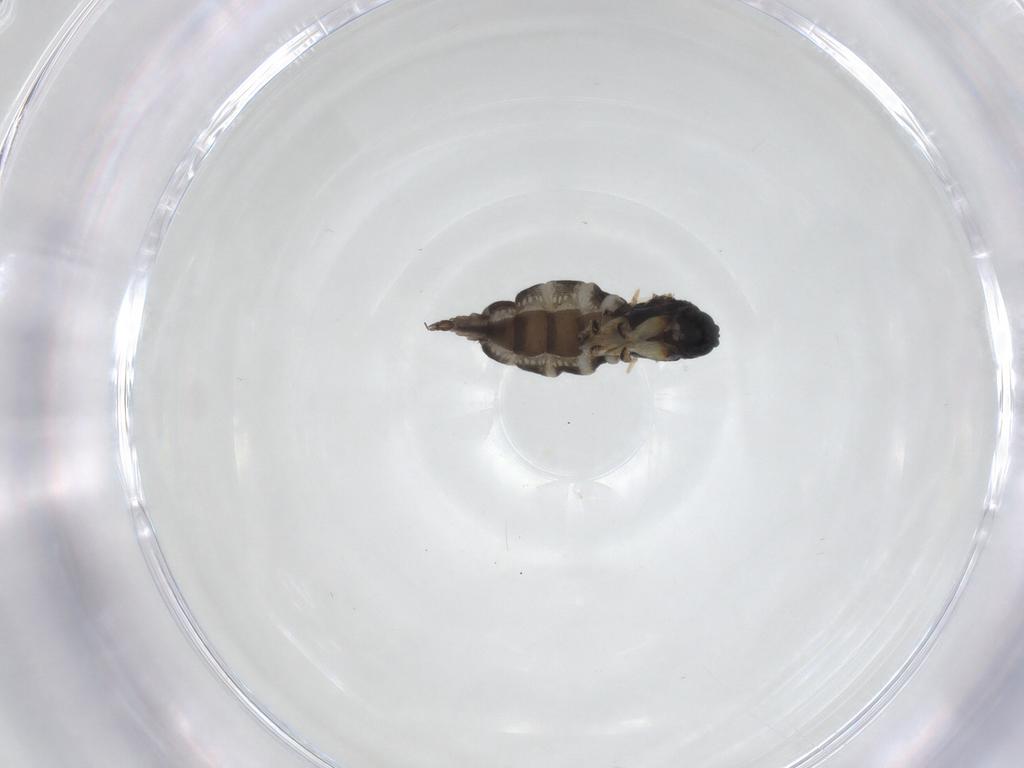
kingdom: Animalia
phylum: Arthropoda
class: Insecta
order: Diptera
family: Sciaridae
